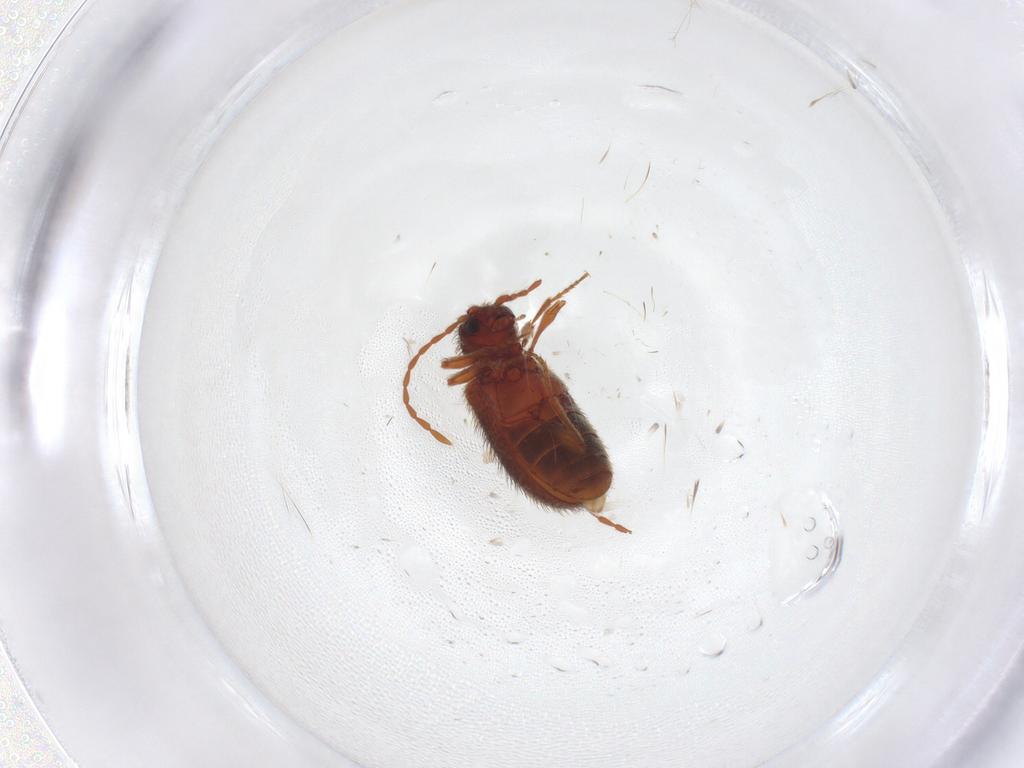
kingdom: Animalia
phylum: Arthropoda
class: Insecta
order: Coleoptera
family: Ptinidae
